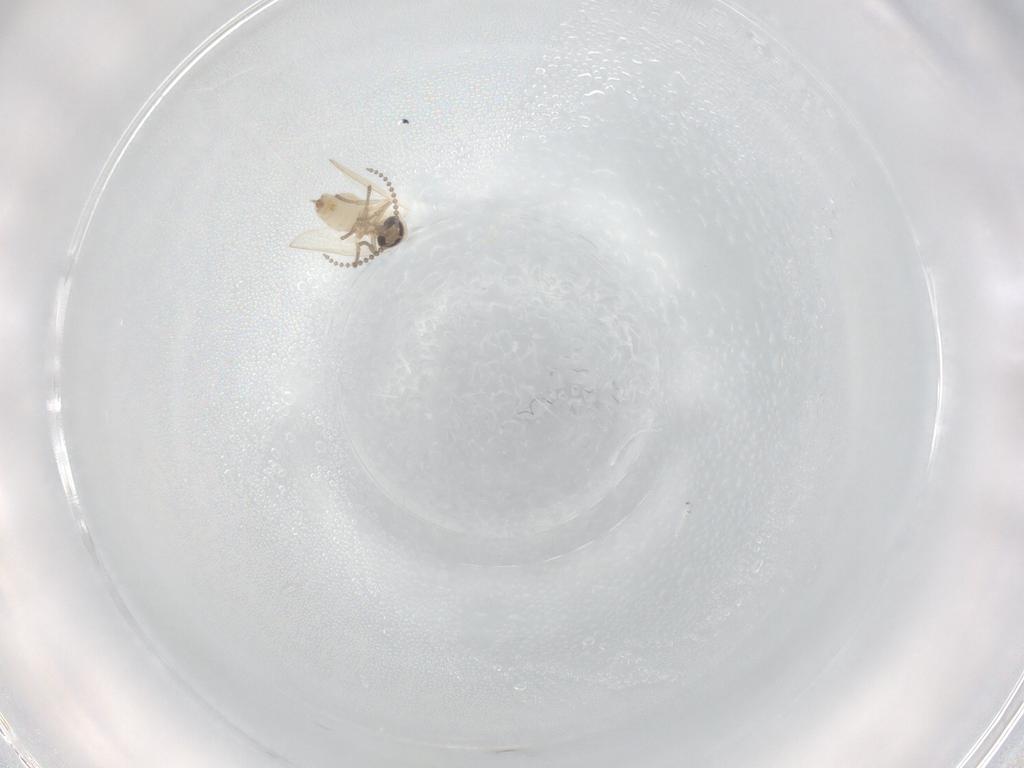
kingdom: Animalia
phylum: Arthropoda
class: Insecta
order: Diptera
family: Psychodidae
